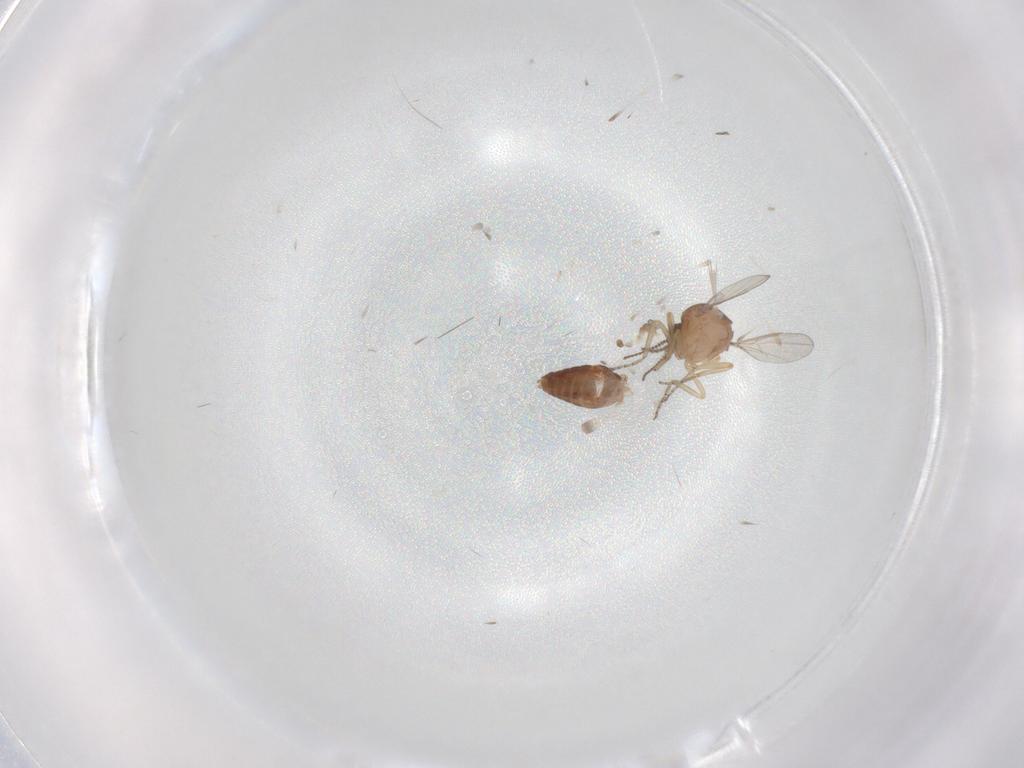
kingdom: Animalia
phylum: Arthropoda
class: Insecta
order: Diptera
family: Ceratopogonidae
